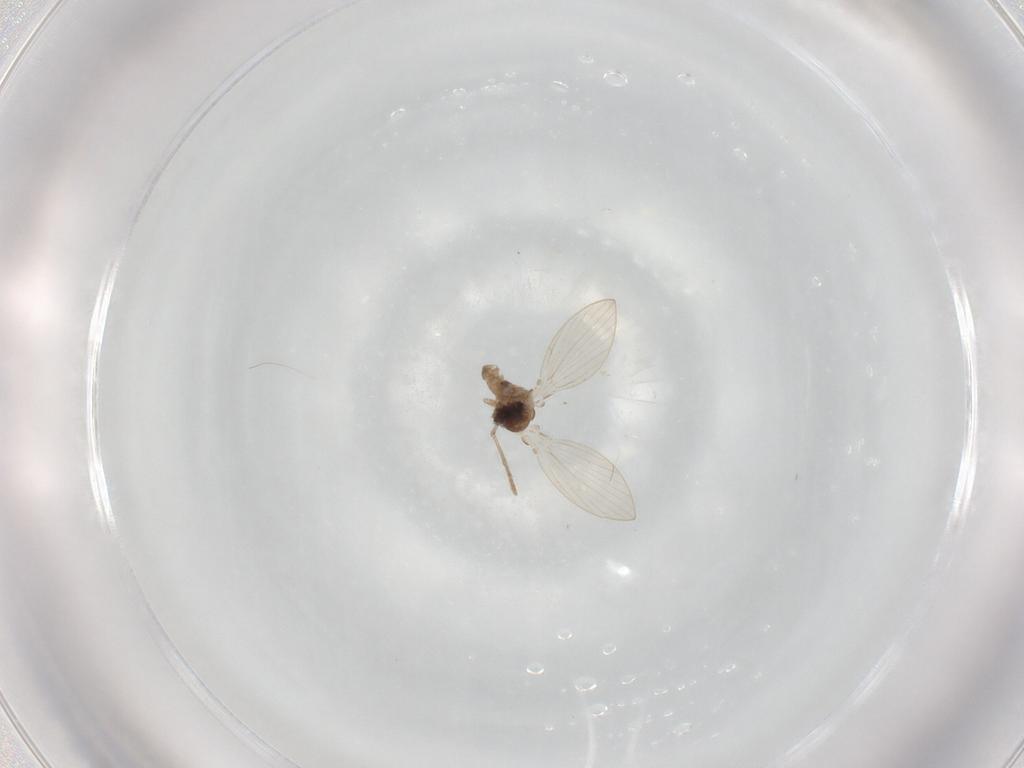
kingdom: Animalia
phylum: Arthropoda
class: Insecta
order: Diptera
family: Psychodidae
